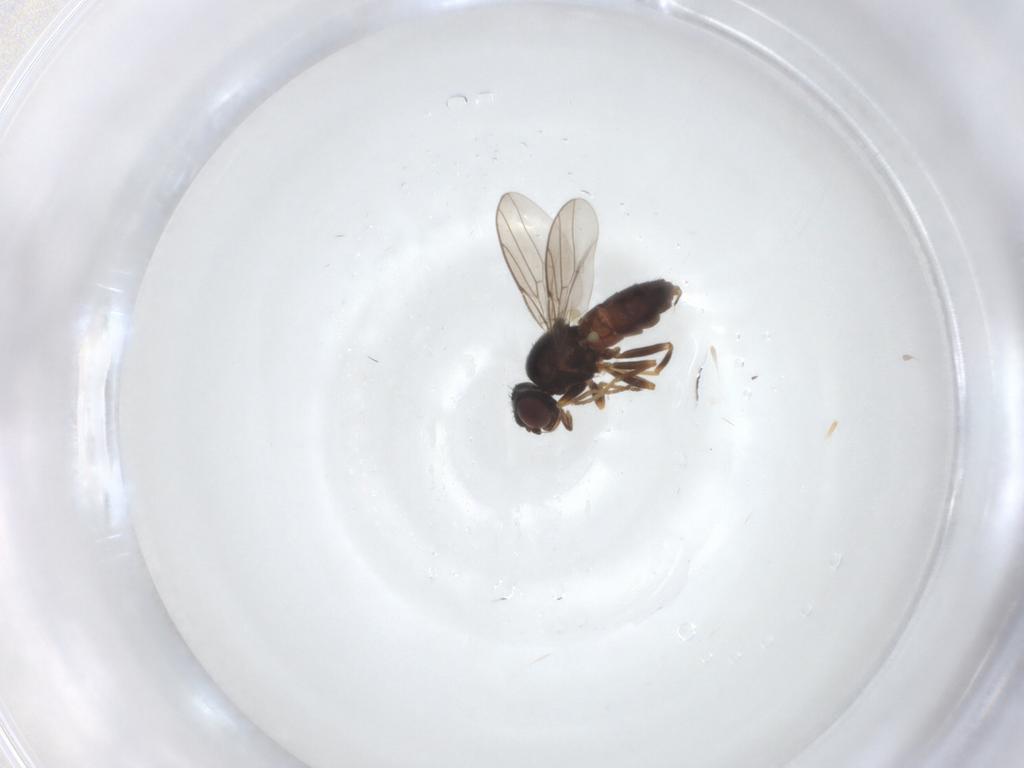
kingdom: Animalia
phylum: Arthropoda
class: Insecta
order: Diptera
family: Chloropidae
